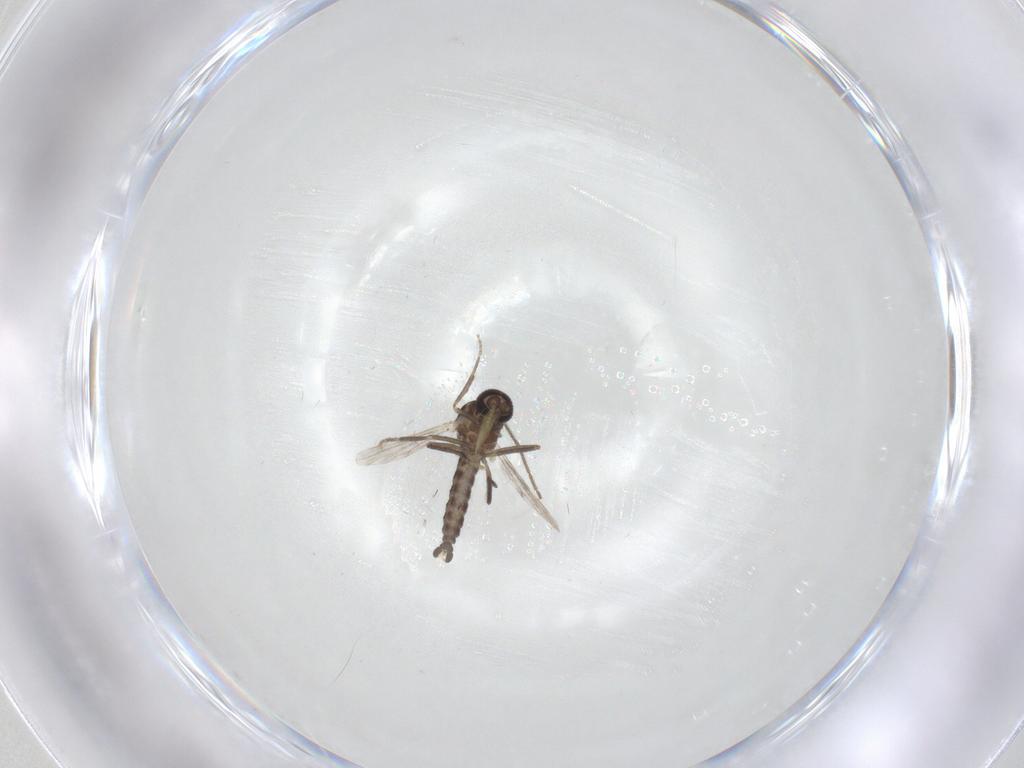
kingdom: Animalia
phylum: Arthropoda
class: Insecta
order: Diptera
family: Ceratopogonidae
